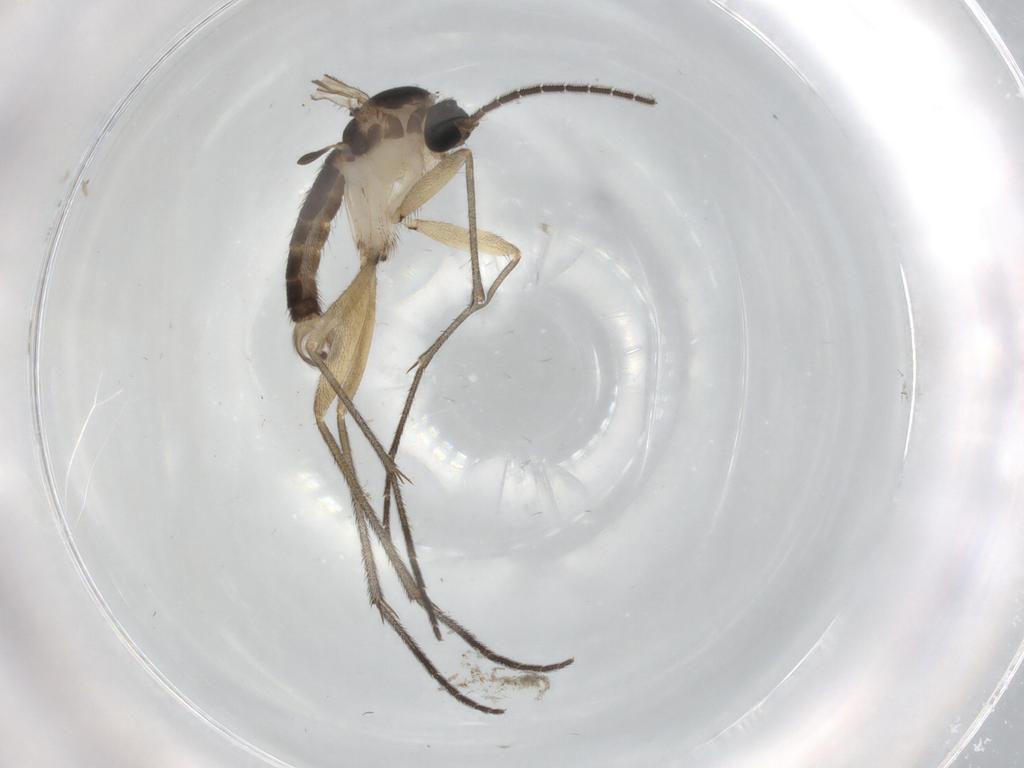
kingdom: Animalia
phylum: Arthropoda
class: Insecta
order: Diptera
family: Sciaridae
